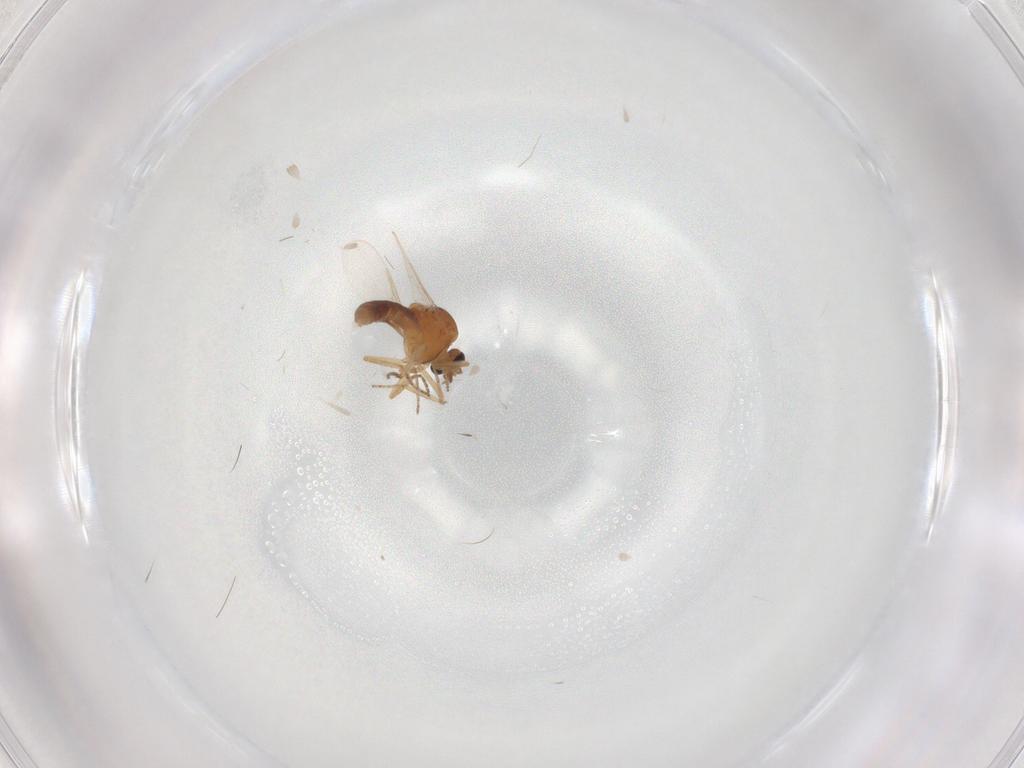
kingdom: Animalia
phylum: Arthropoda
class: Insecta
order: Diptera
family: Ceratopogonidae
